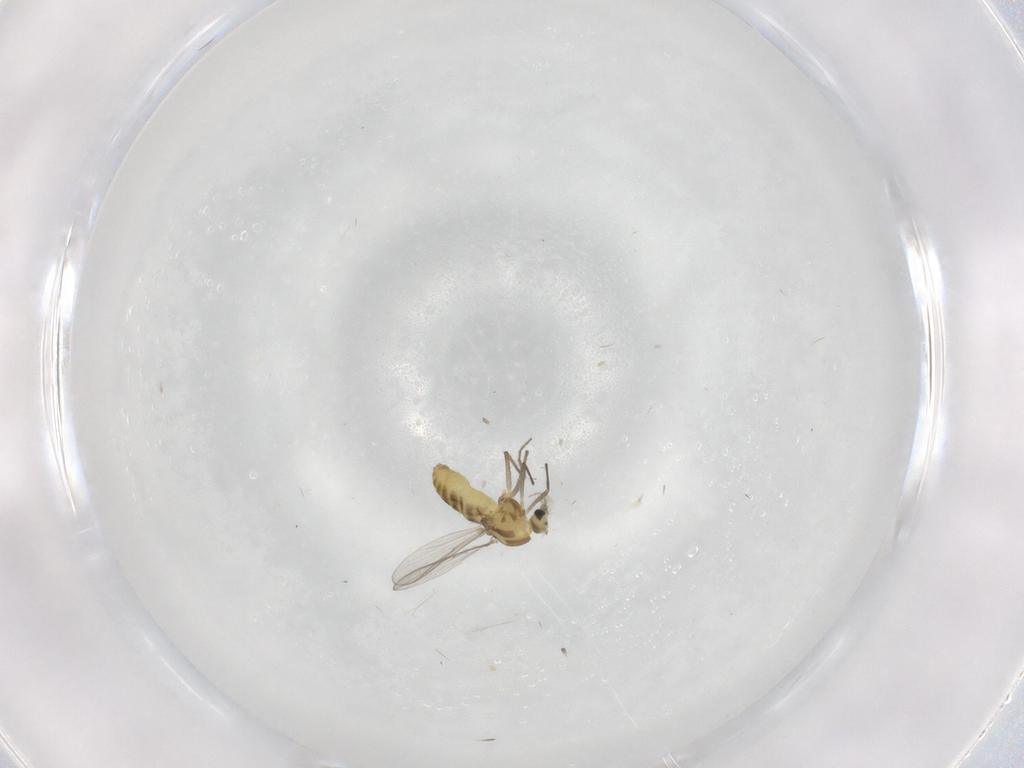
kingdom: Animalia
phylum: Arthropoda
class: Insecta
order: Diptera
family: Chironomidae
